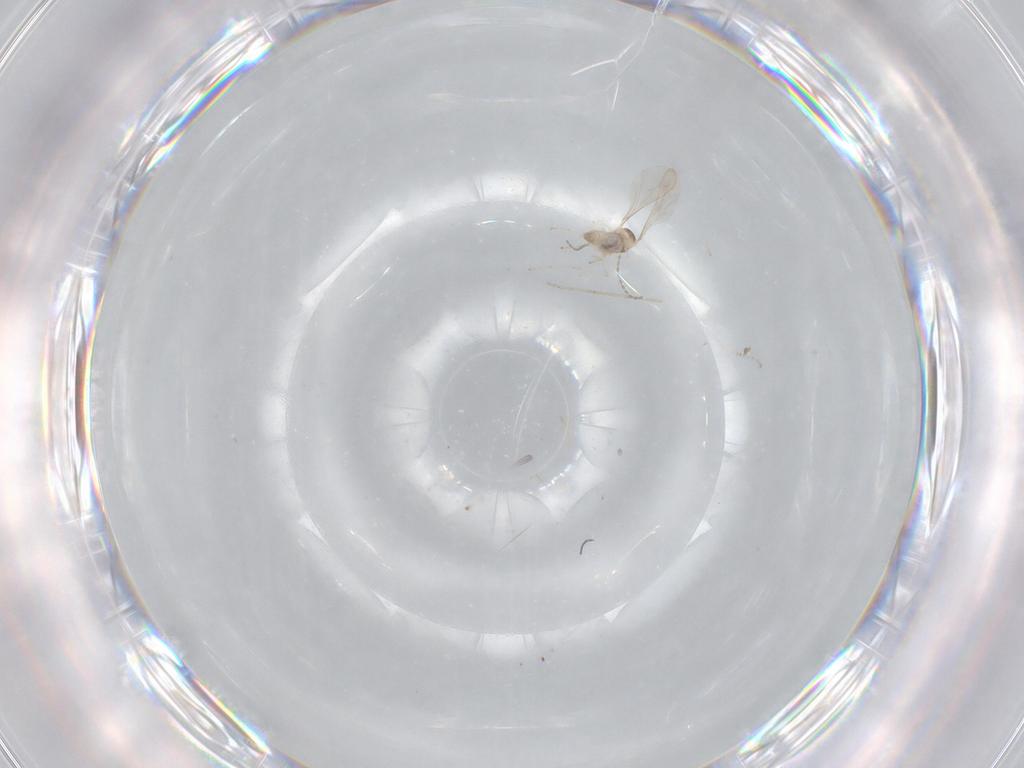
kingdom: Animalia
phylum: Arthropoda
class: Insecta
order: Diptera
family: Cecidomyiidae
